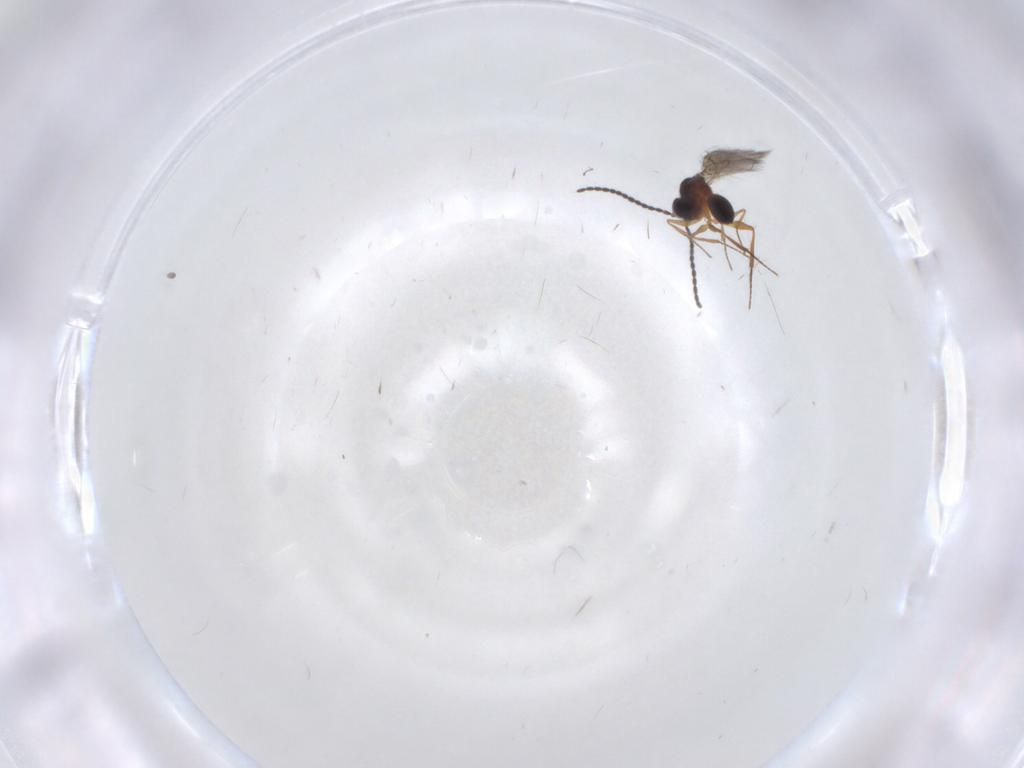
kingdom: Animalia
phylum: Arthropoda
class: Insecta
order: Hymenoptera
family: Figitidae
